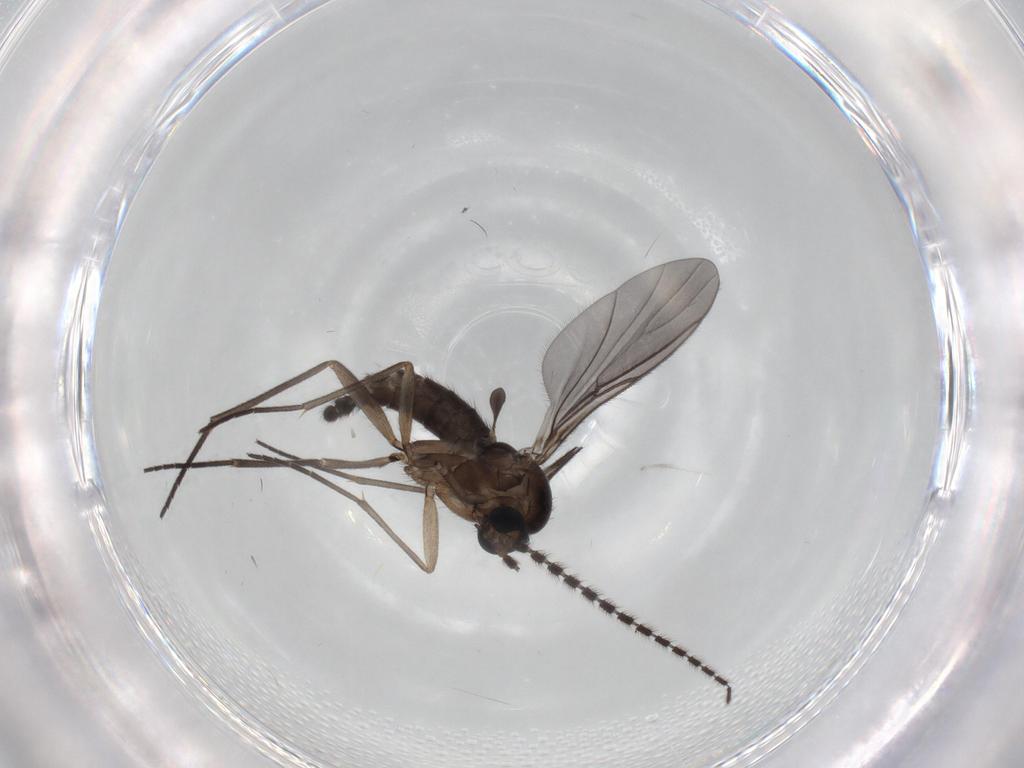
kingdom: Animalia
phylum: Arthropoda
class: Insecta
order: Diptera
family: Sciaridae
